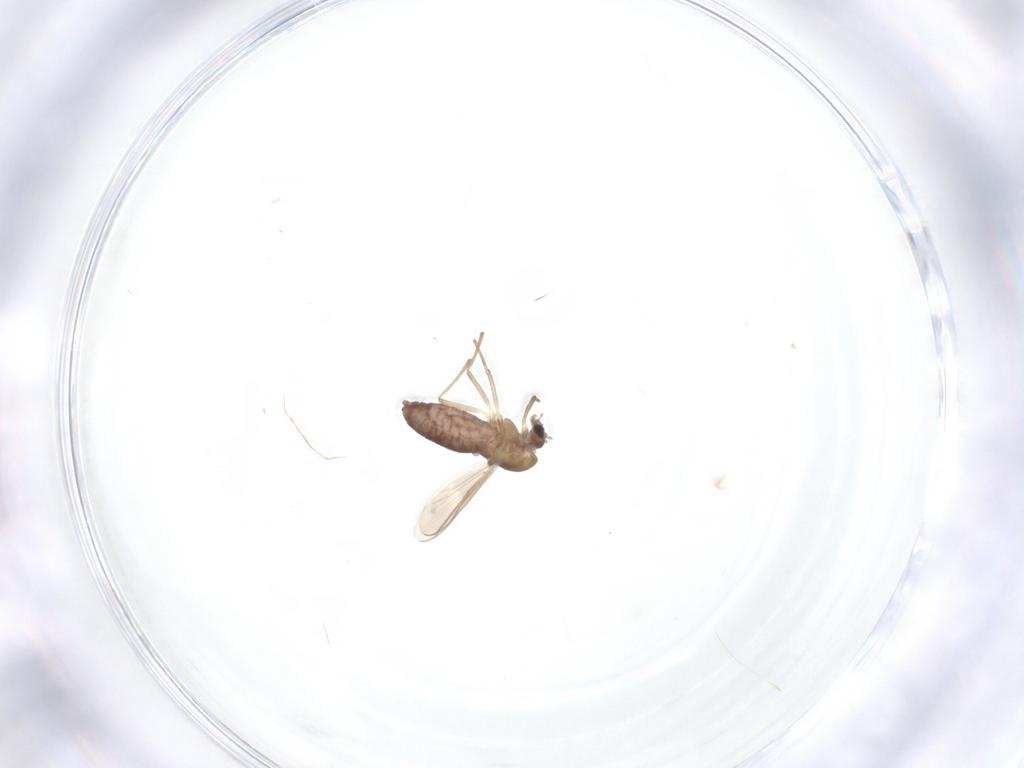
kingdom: Animalia
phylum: Arthropoda
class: Insecta
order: Diptera
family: Chironomidae
